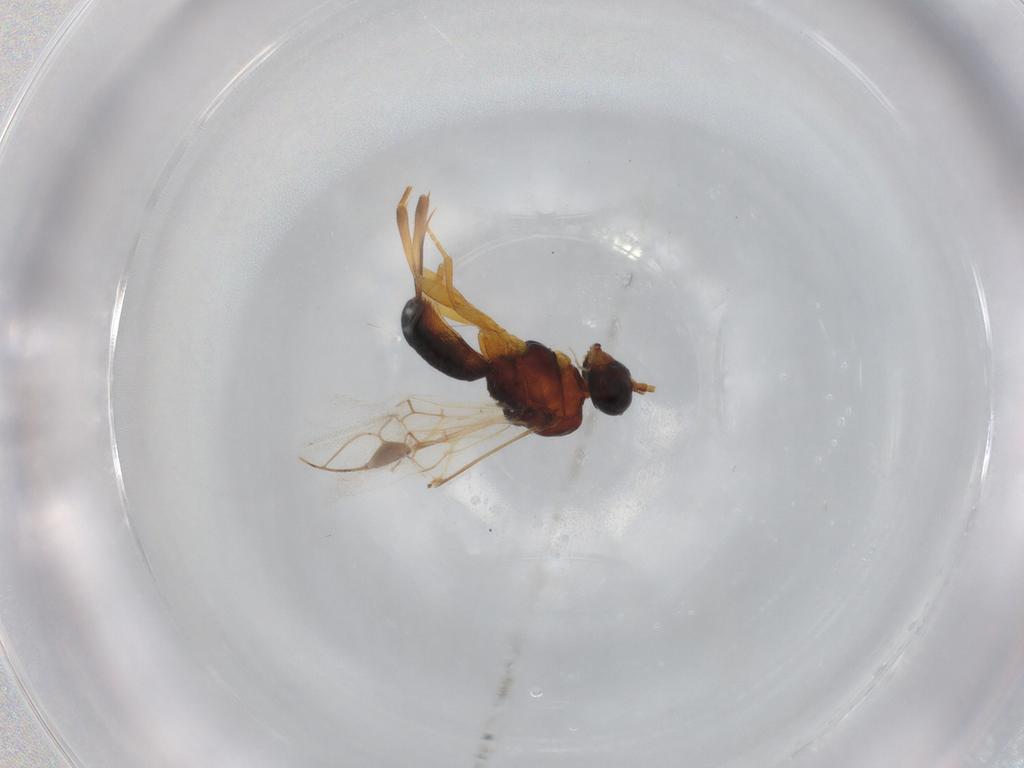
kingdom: Animalia
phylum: Arthropoda
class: Insecta
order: Hymenoptera
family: Braconidae
